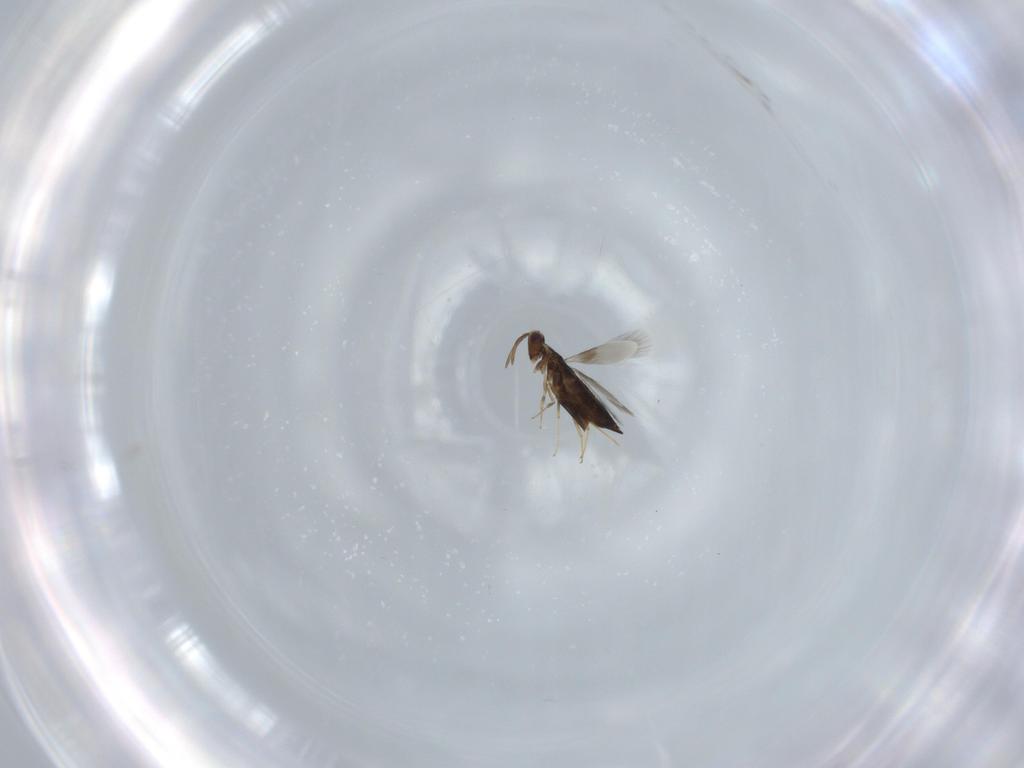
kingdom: Animalia
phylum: Arthropoda
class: Insecta
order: Hymenoptera
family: Signiphoridae
